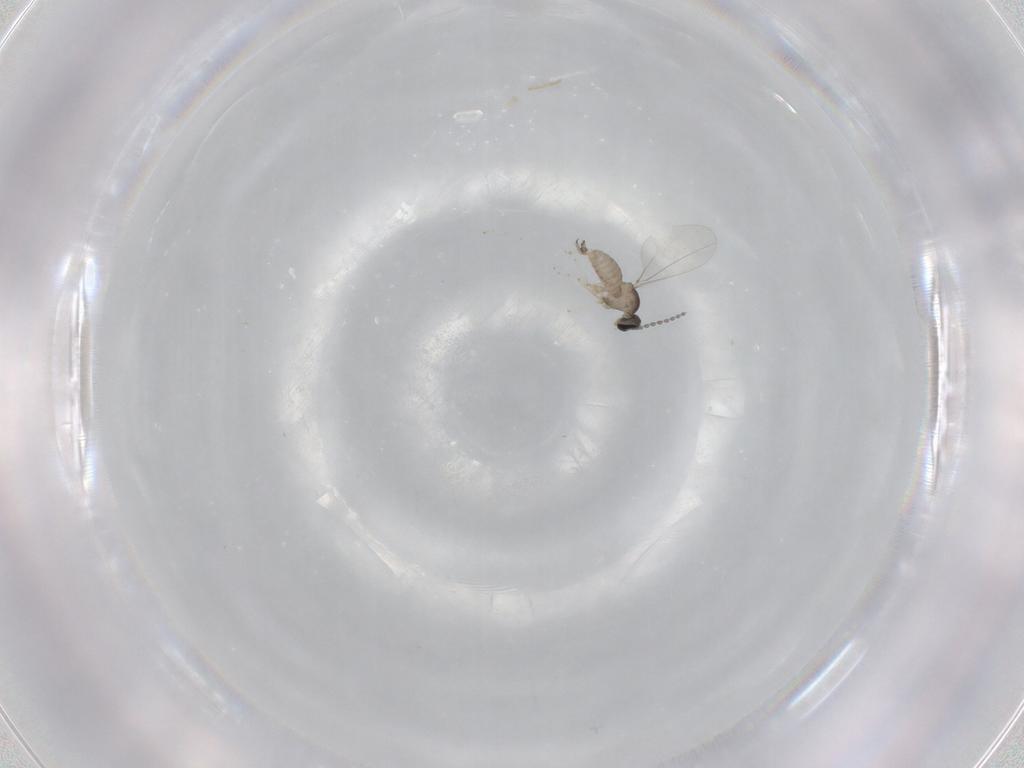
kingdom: Animalia
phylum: Arthropoda
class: Insecta
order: Diptera
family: Cecidomyiidae
